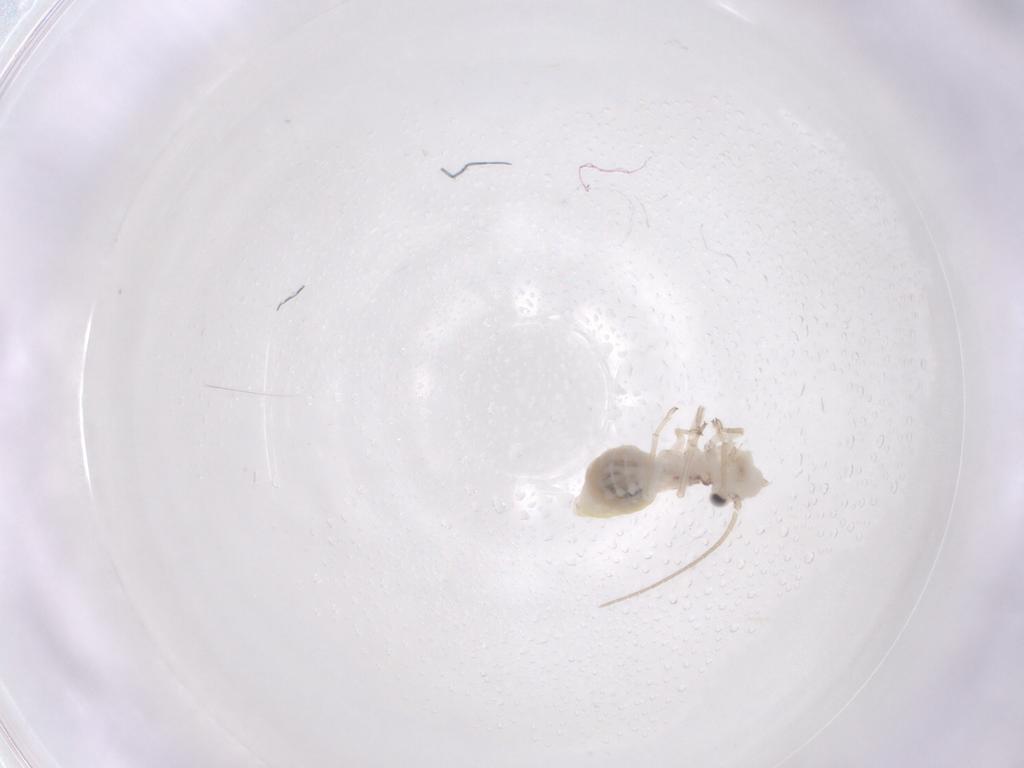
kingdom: Animalia
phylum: Arthropoda
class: Insecta
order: Psocodea
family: Caeciliusidae
